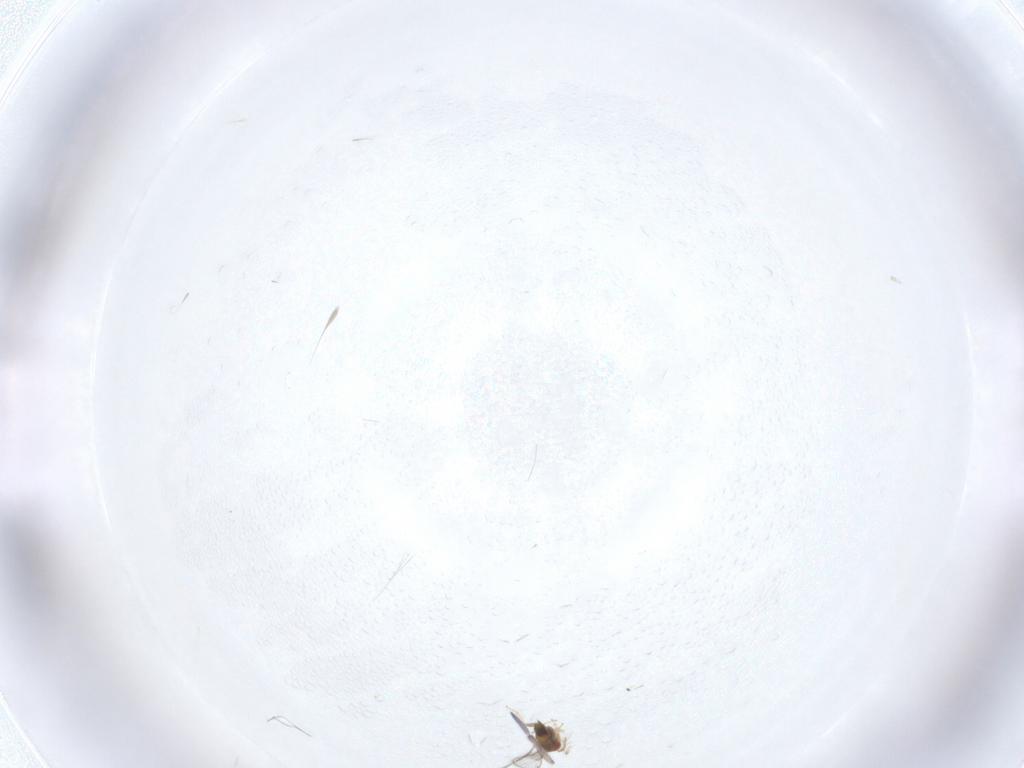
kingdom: Animalia
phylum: Arthropoda
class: Insecta
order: Hymenoptera
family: Trichogrammatidae
